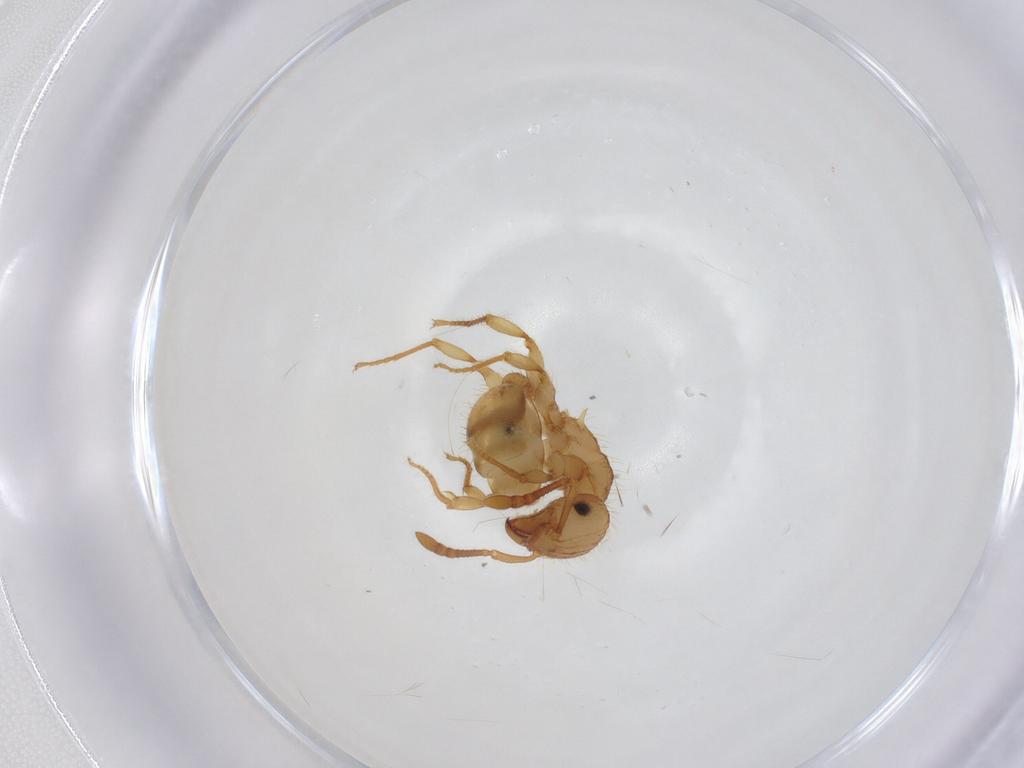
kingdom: Animalia
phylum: Arthropoda
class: Insecta
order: Hymenoptera
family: Formicidae
